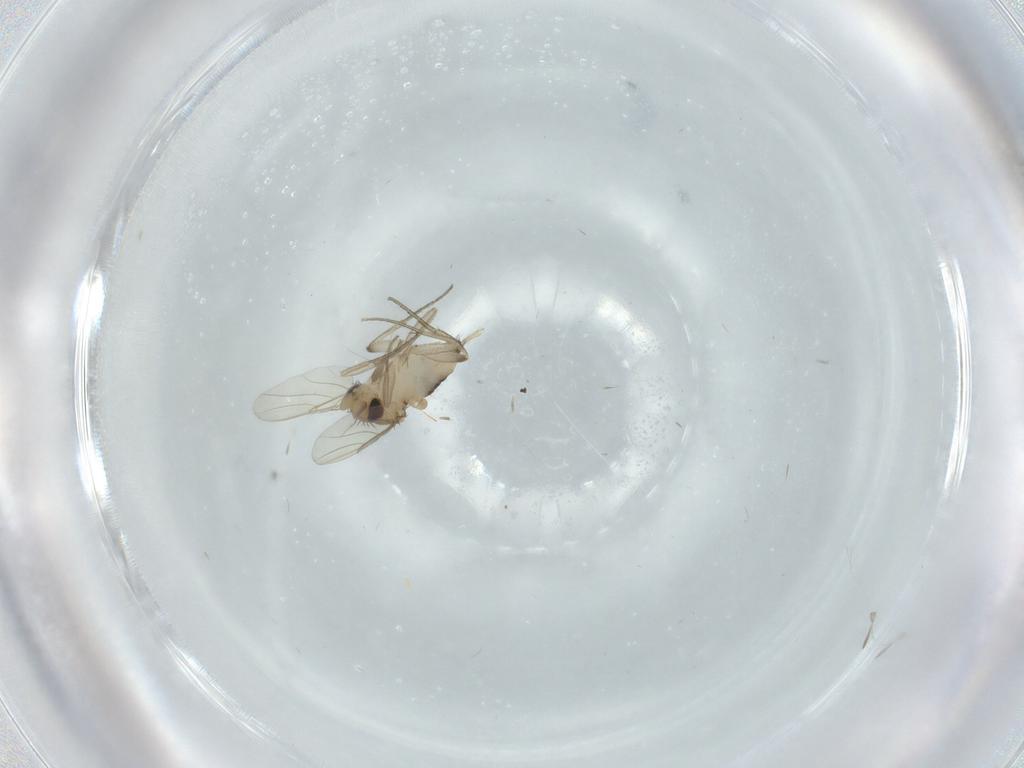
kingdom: Animalia
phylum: Arthropoda
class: Insecta
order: Diptera
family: Phoridae
